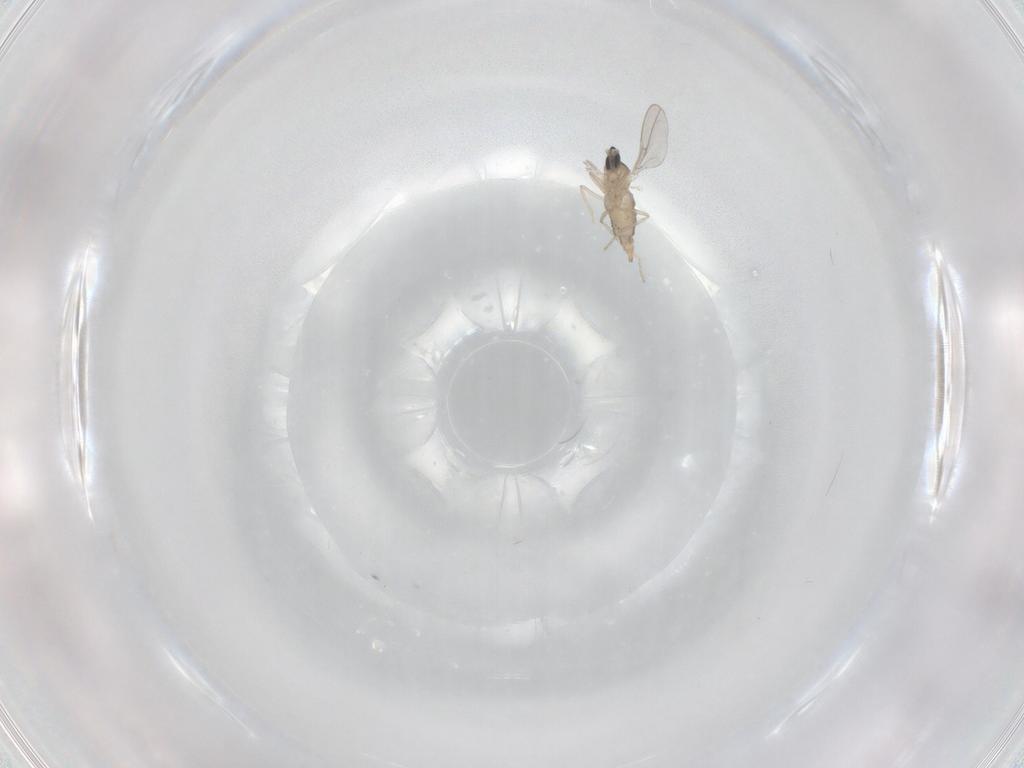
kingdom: Animalia
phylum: Arthropoda
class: Insecta
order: Diptera
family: Cecidomyiidae
